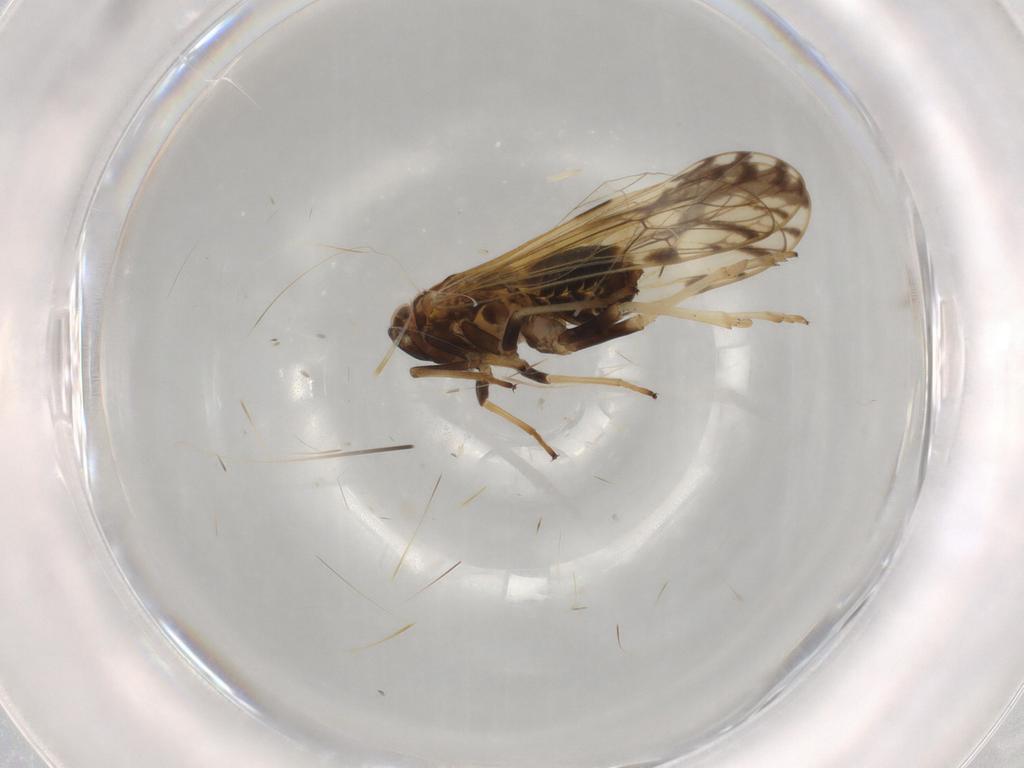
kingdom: Animalia
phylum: Arthropoda
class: Insecta
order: Hemiptera
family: Delphacidae
